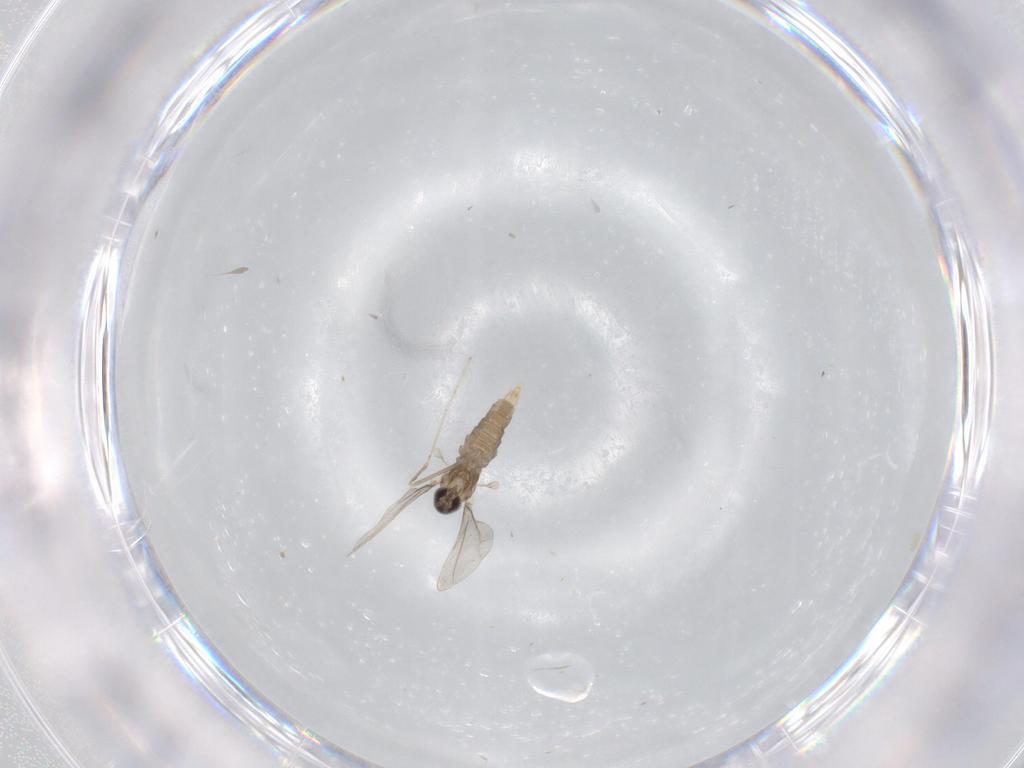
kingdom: Animalia
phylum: Arthropoda
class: Insecta
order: Diptera
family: Cecidomyiidae
